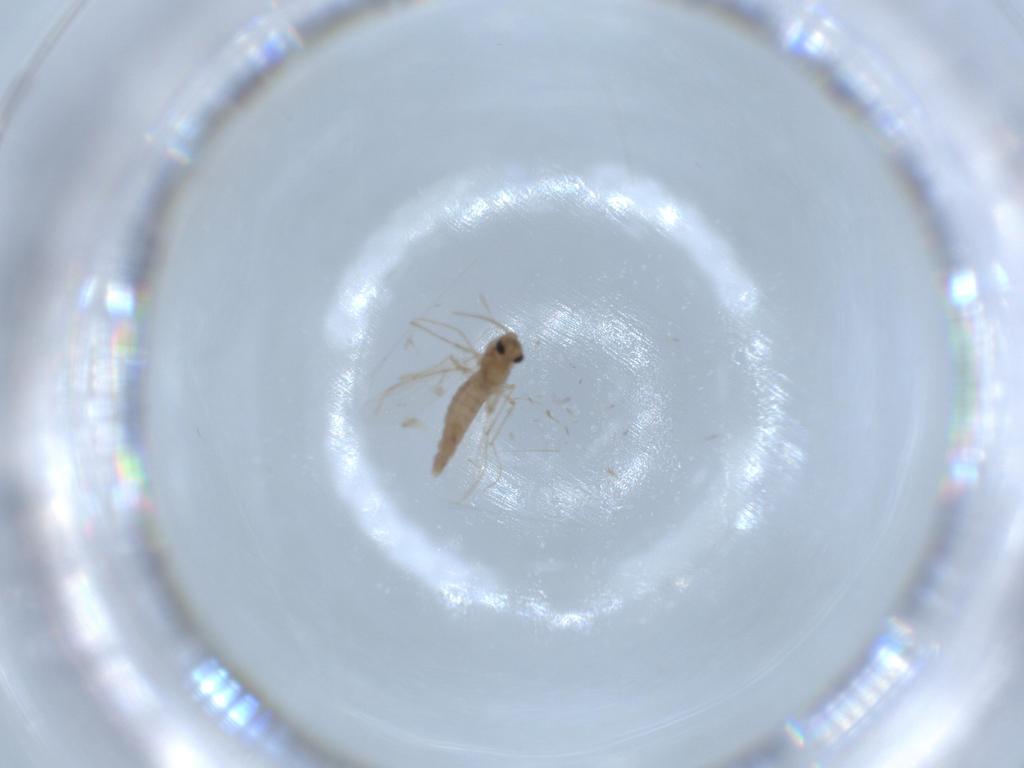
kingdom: Animalia
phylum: Arthropoda
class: Insecta
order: Diptera
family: Chironomidae
